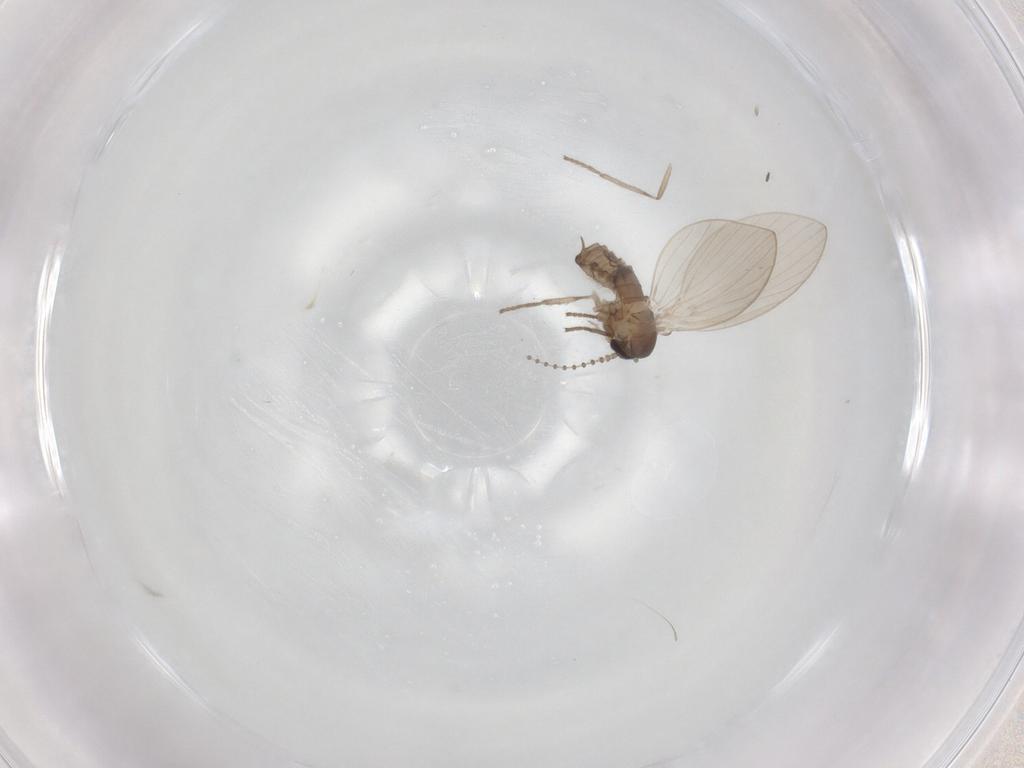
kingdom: Animalia
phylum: Arthropoda
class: Insecta
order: Diptera
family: Psychodidae
